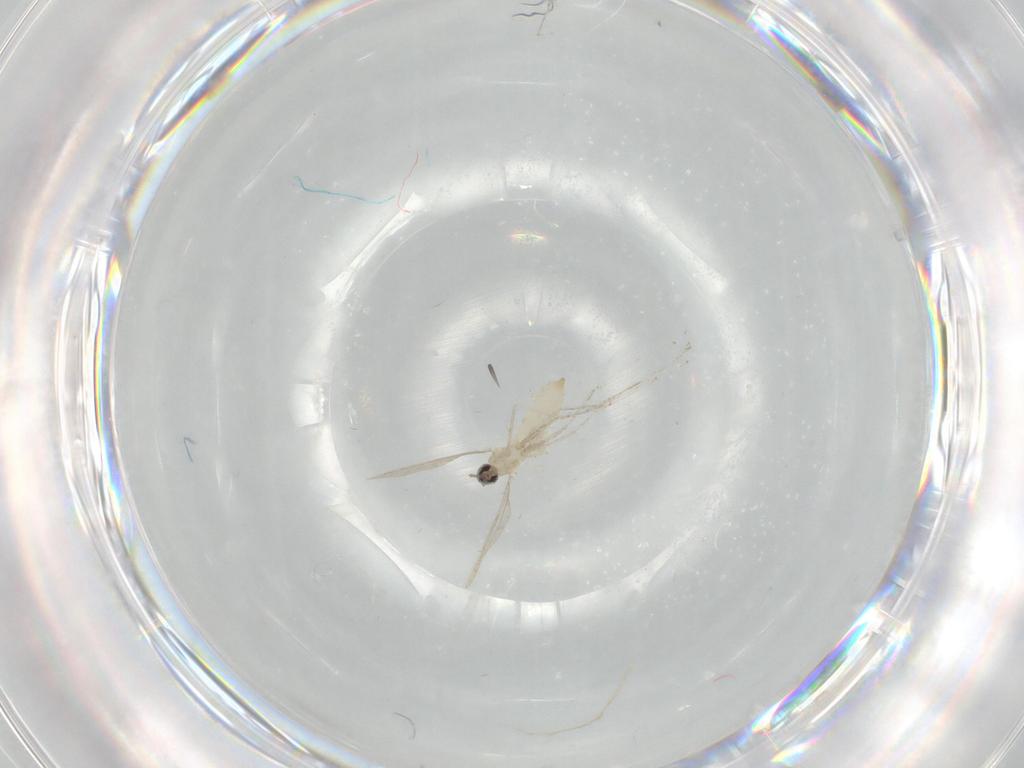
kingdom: Animalia
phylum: Arthropoda
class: Insecta
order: Diptera
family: Cecidomyiidae
